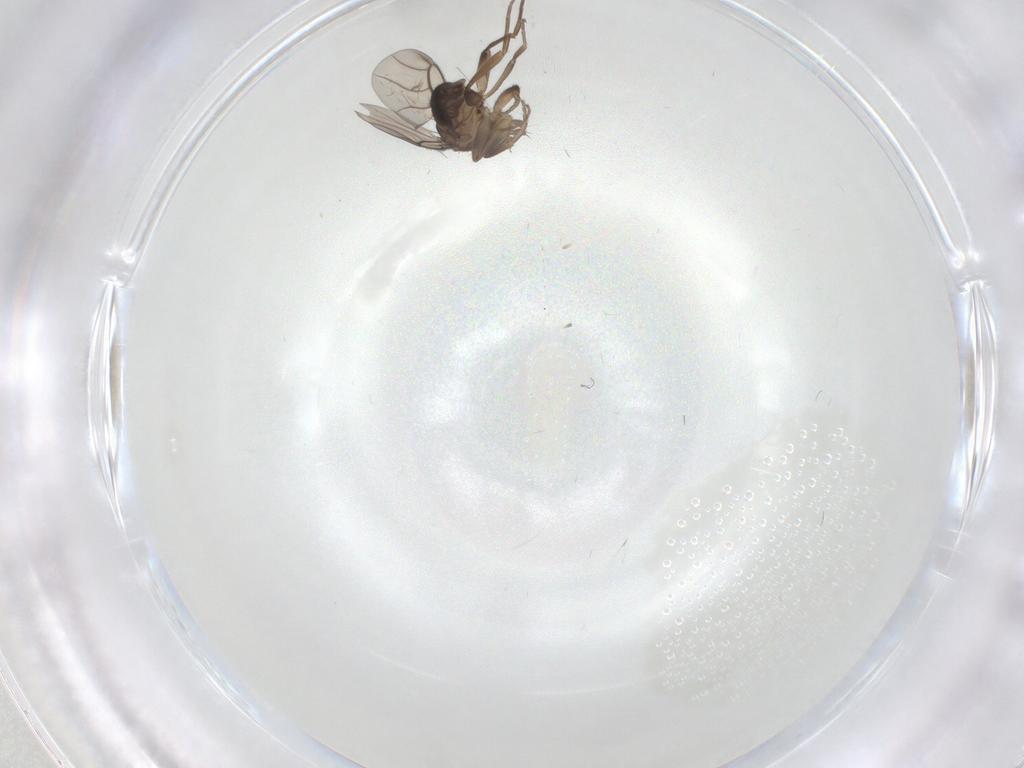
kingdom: Animalia
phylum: Arthropoda
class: Insecta
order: Diptera
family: Phoridae
